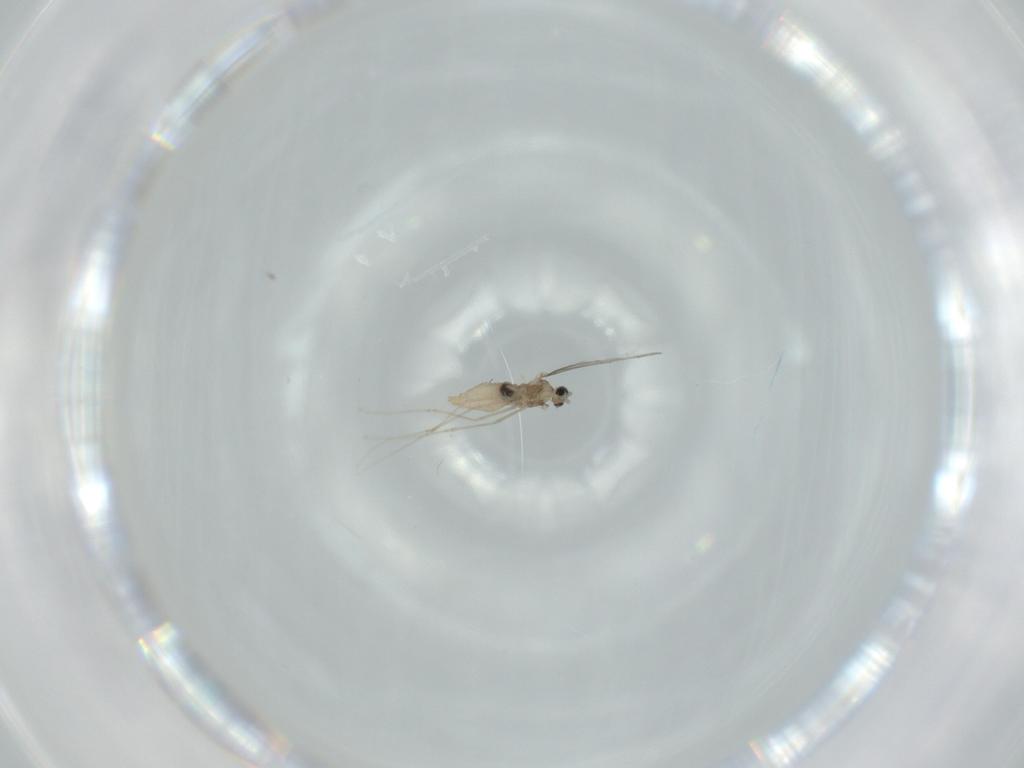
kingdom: Animalia
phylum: Arthropoda
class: Insecta
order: Diptera
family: Cecidomyiidae
